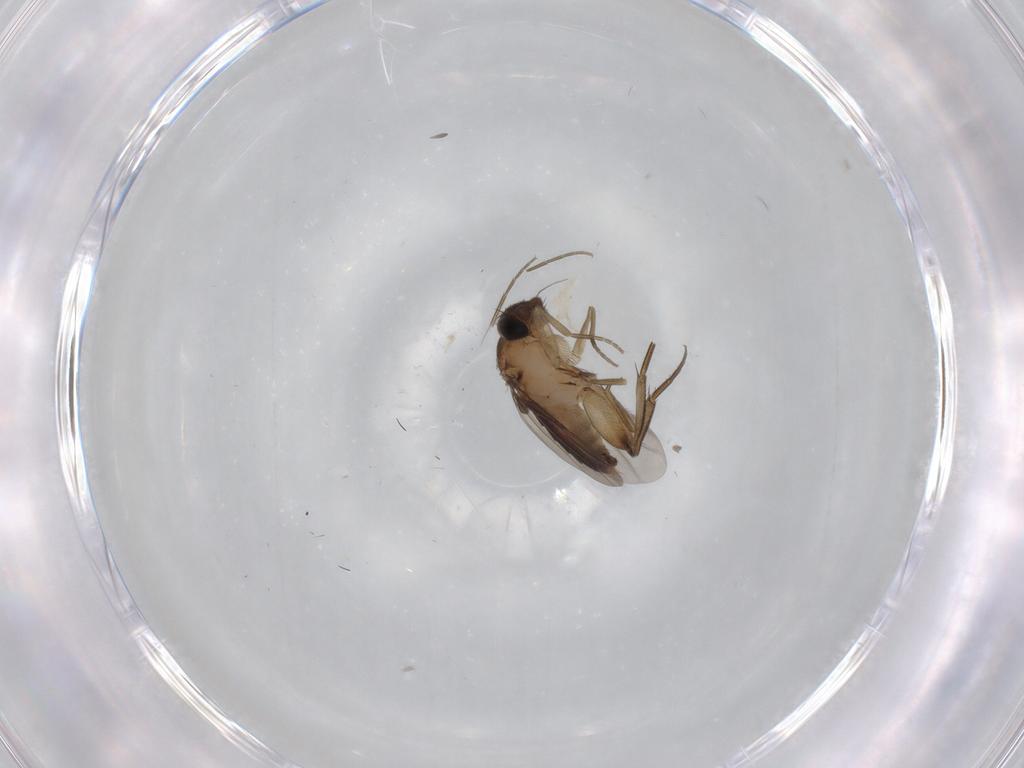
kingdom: Animalia
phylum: Arthropoda
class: Insecta
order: Diptera
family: Phoridae
